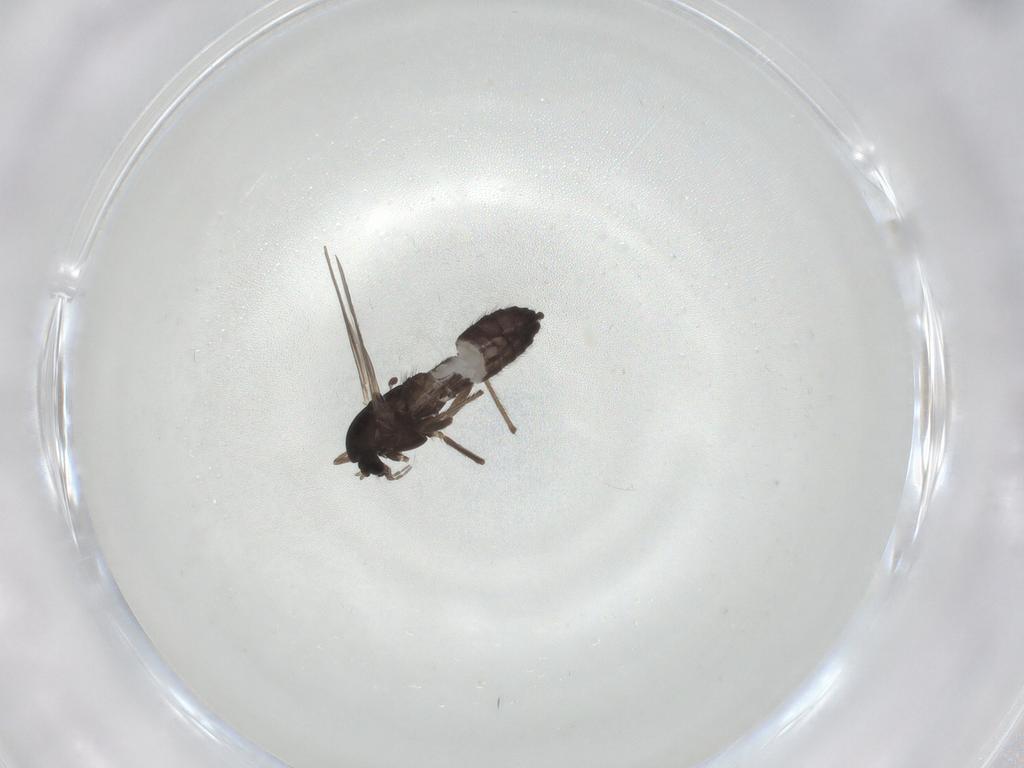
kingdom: Animalia
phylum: Arthropoda
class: Insecta
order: Diptera
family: Chironomidae
